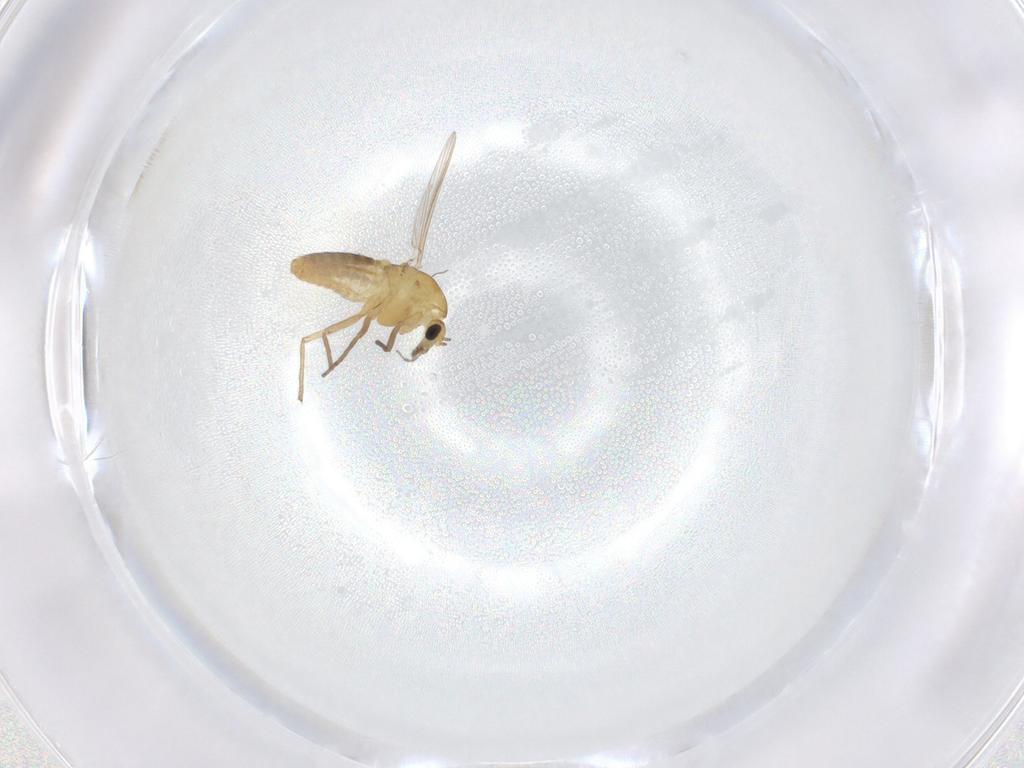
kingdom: Animalia
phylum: Arthropoda
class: Insecta
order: Diptera
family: Chironomidae
